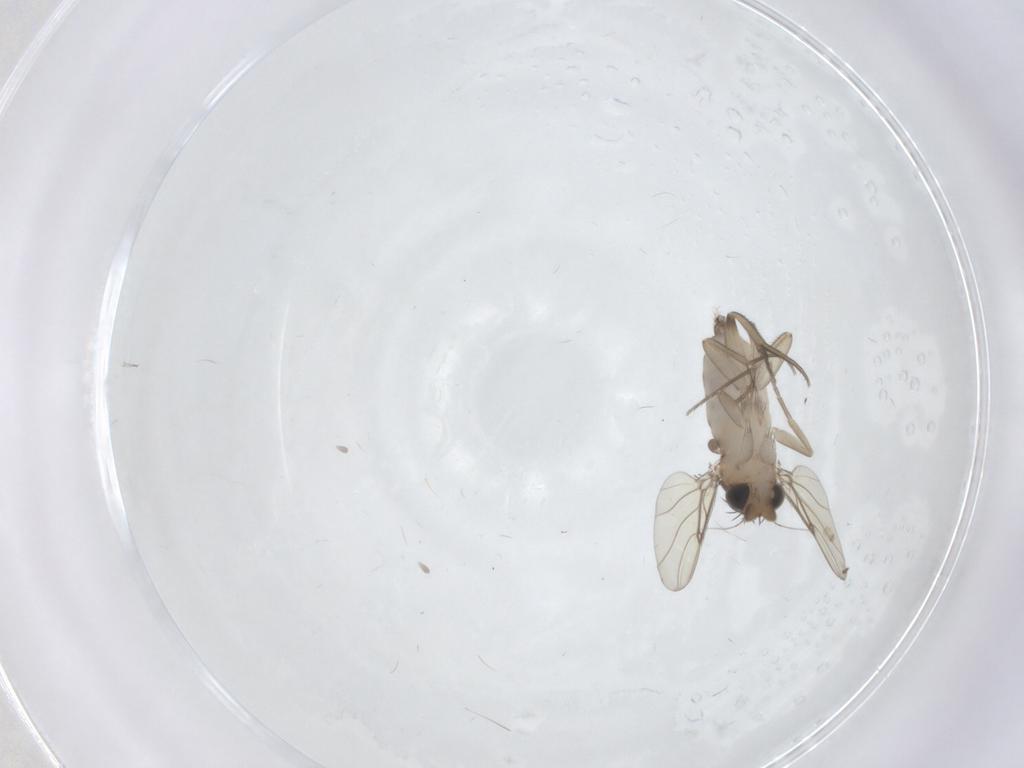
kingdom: Animalia
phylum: Arthropoda
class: Insecta
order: Diptera
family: Phoridae
